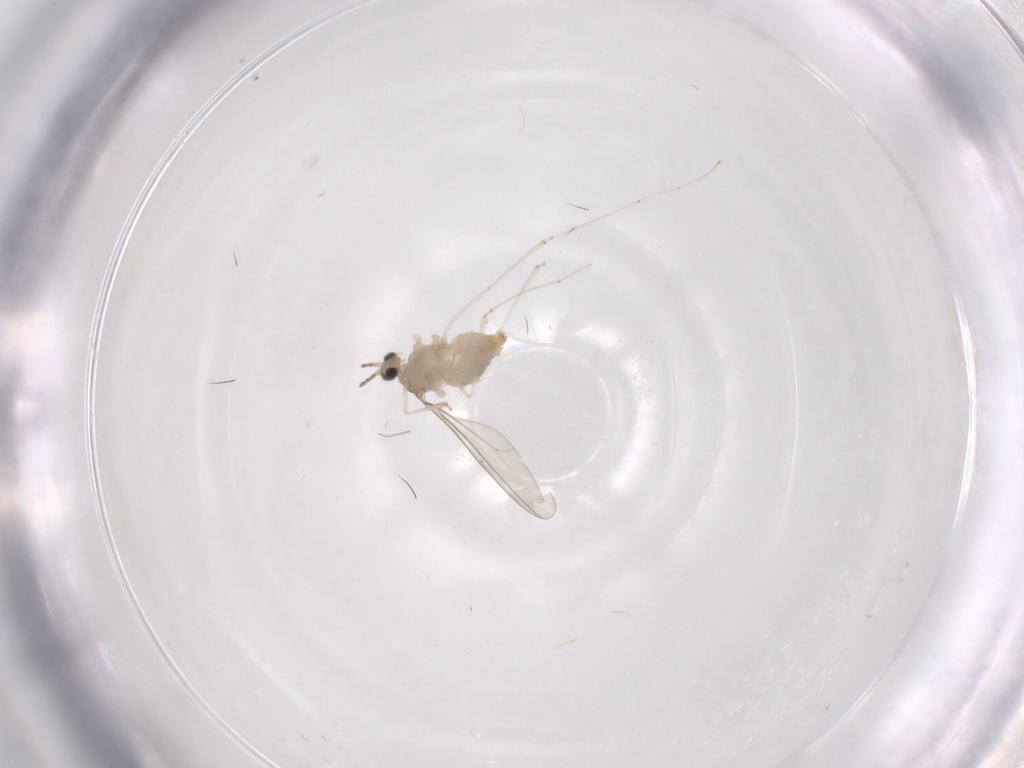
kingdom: Animalia
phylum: Arthropoda
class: Insecta
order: Diptera
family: Cecidomyiidae
